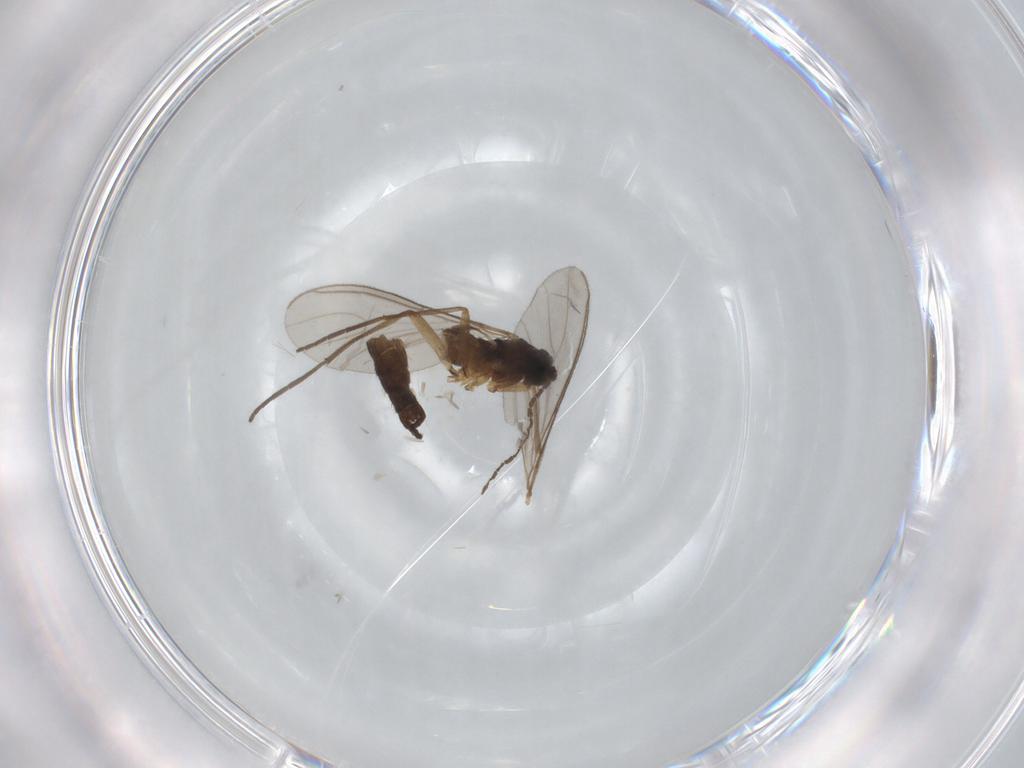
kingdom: Animalia
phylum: Arthropoda
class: Insecta
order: Diptera
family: Sciaridae
